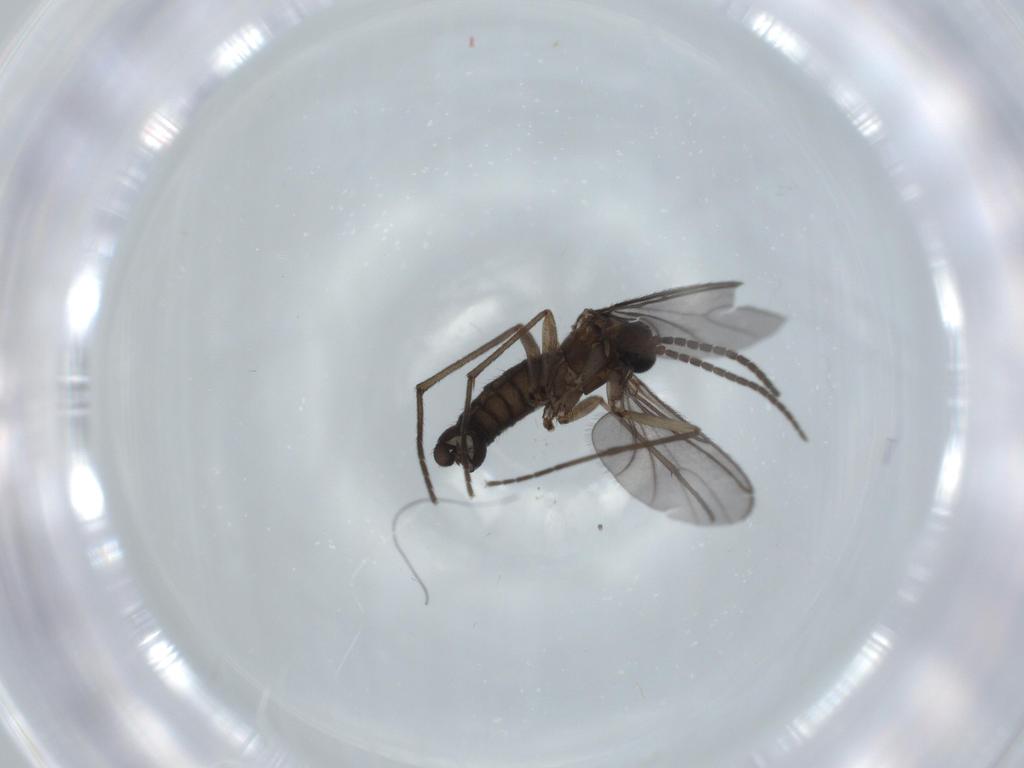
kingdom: Animalia
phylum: Arthropoda
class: Insecta
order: Diptera
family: Sciaridae
